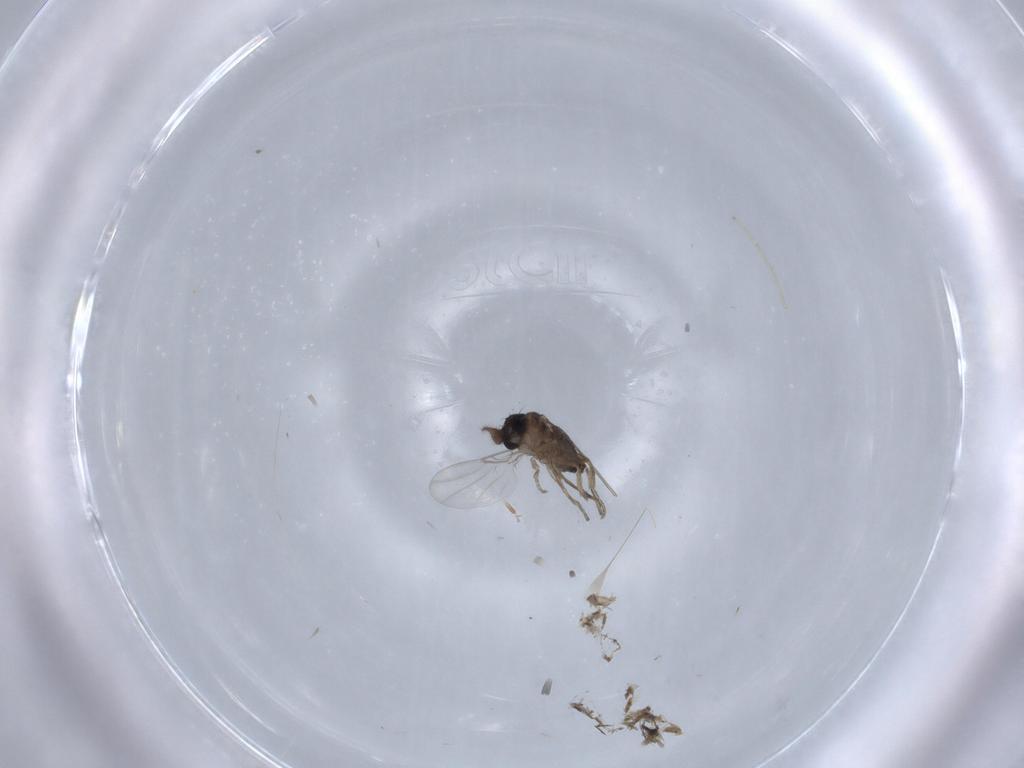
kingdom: Animalia
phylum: Arthropoda
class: Insecta
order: Diptera
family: Phoridae
